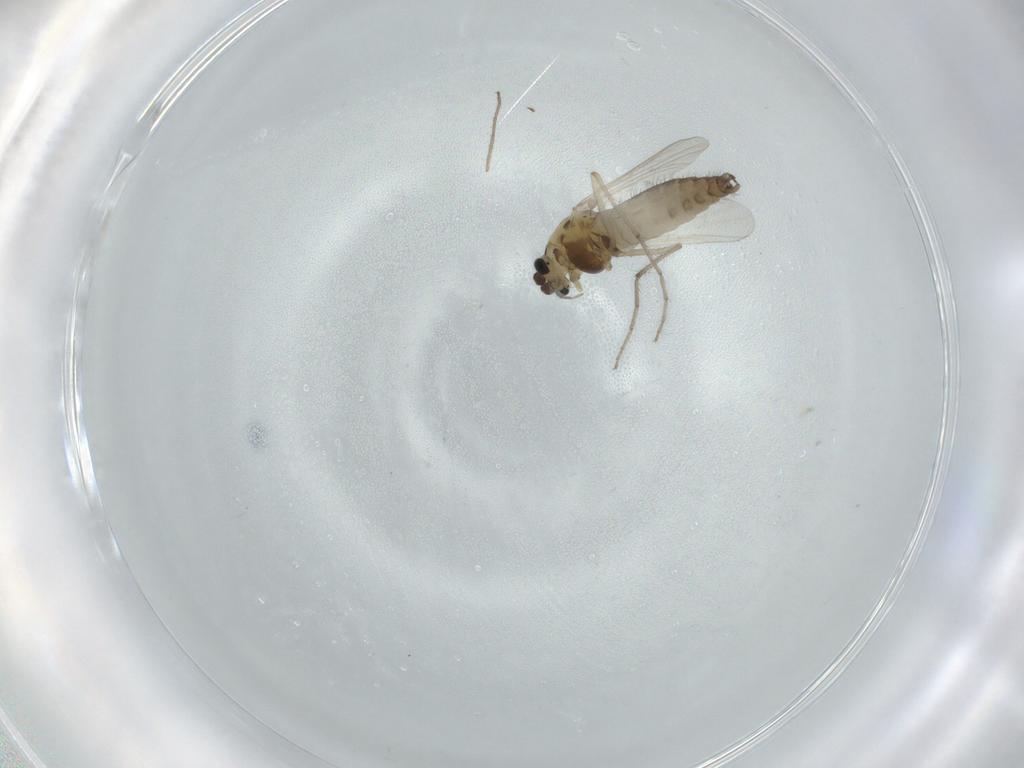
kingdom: Animalia
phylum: Arthropoda
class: Insecta
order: Diptera
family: Chironomidae
